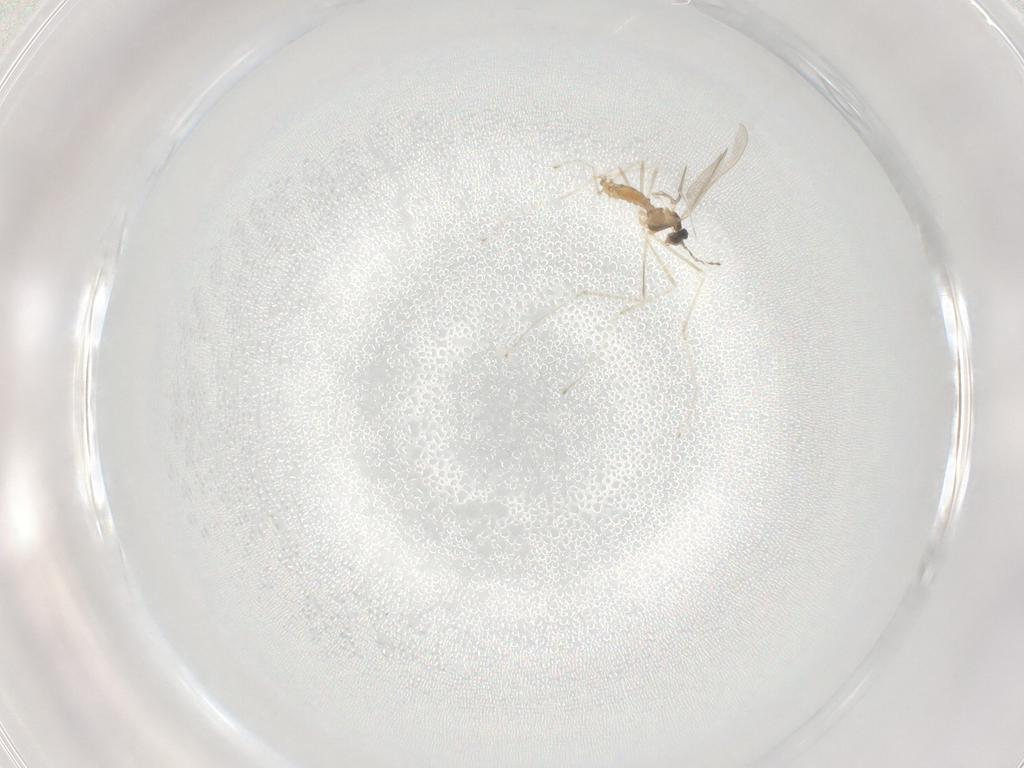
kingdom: Animalia
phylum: Arthropoda
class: Insecta
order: Diptera
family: Cecidomyiidae
